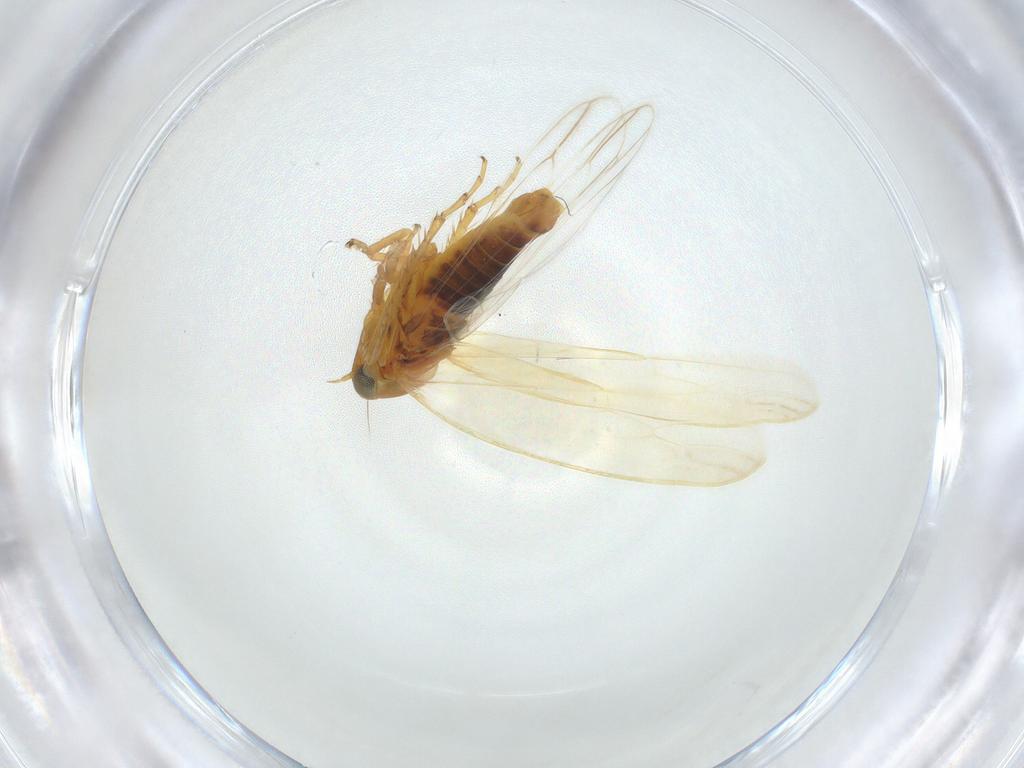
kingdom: Animalia
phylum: Arthropoda
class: Insecta
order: Hemiptera
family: Cicadellidae
